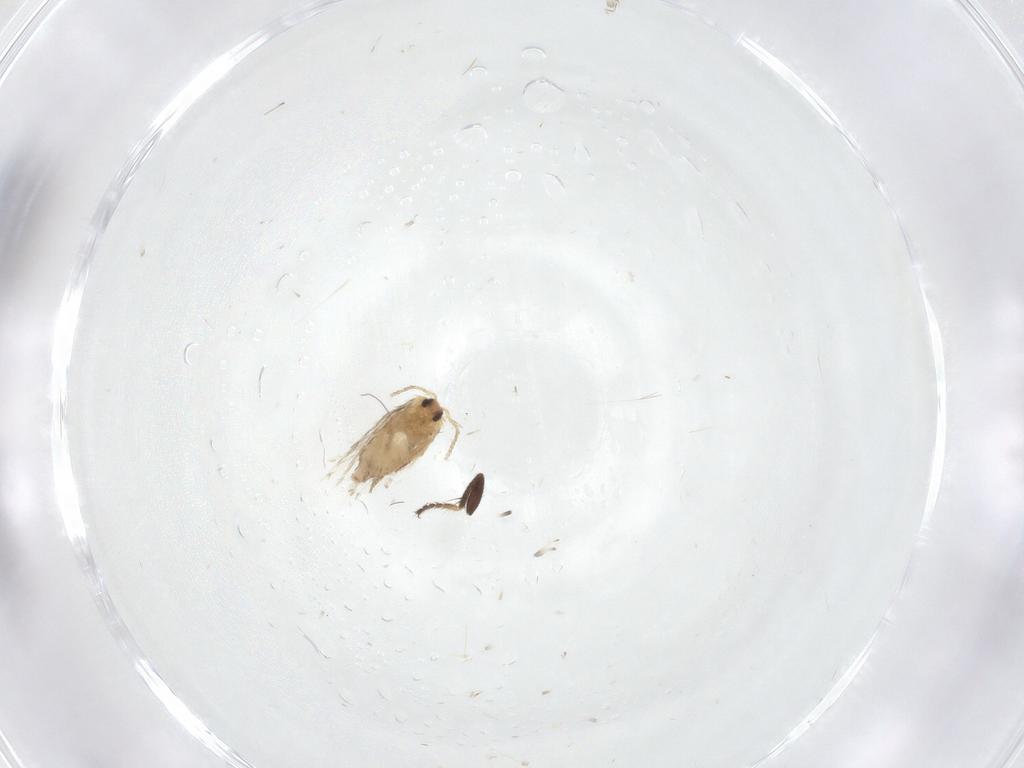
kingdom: Animalia
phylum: Arthropoda
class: Insecta
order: Lepidoptera
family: Nepticulidae
